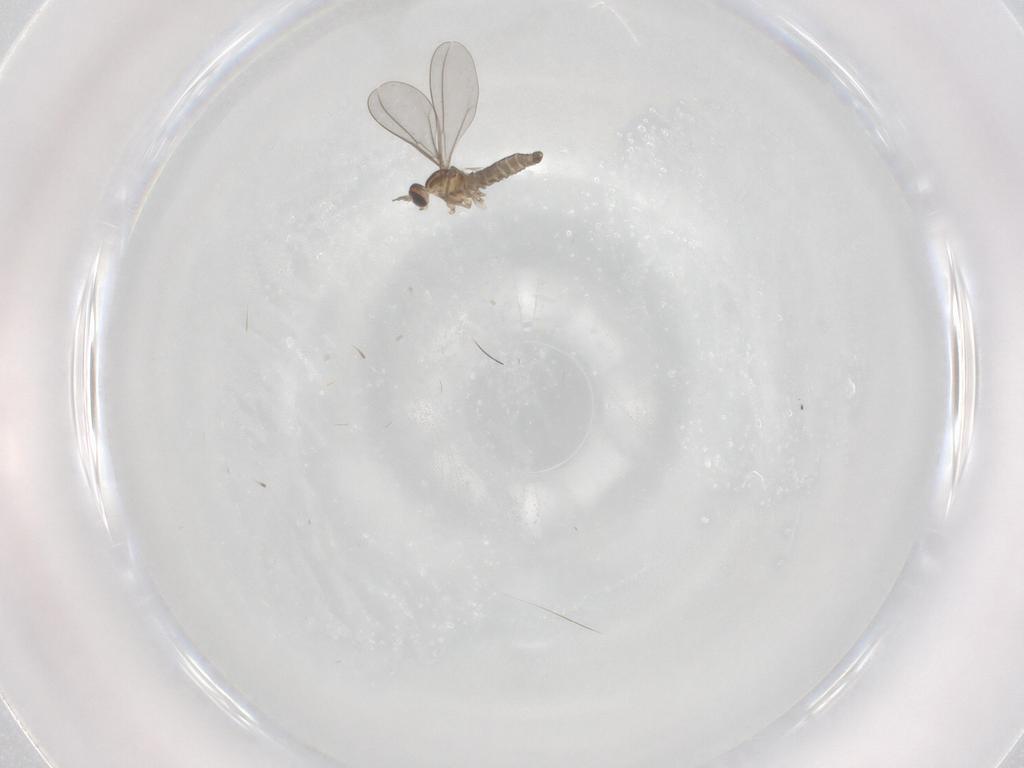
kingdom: Animalia
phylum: Arthropoda
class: Insecta
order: Diptera
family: Cecidomyiidae
